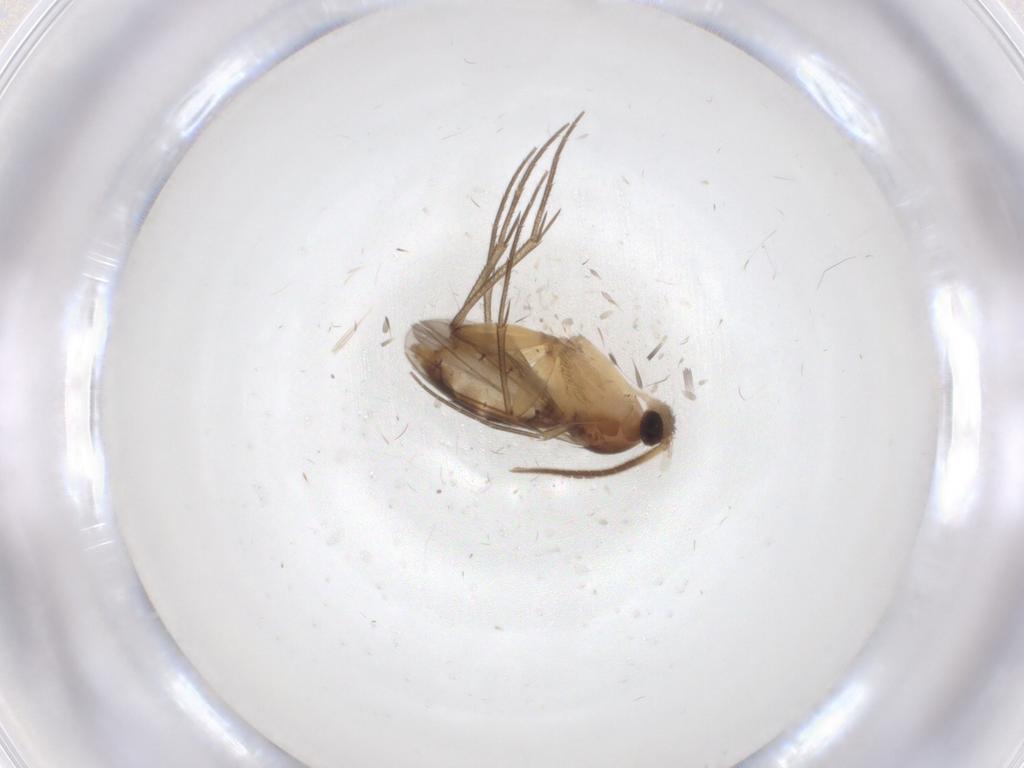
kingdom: Animalia
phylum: Arthropoda
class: Insecta
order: Diptera
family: Mycetophilidae
